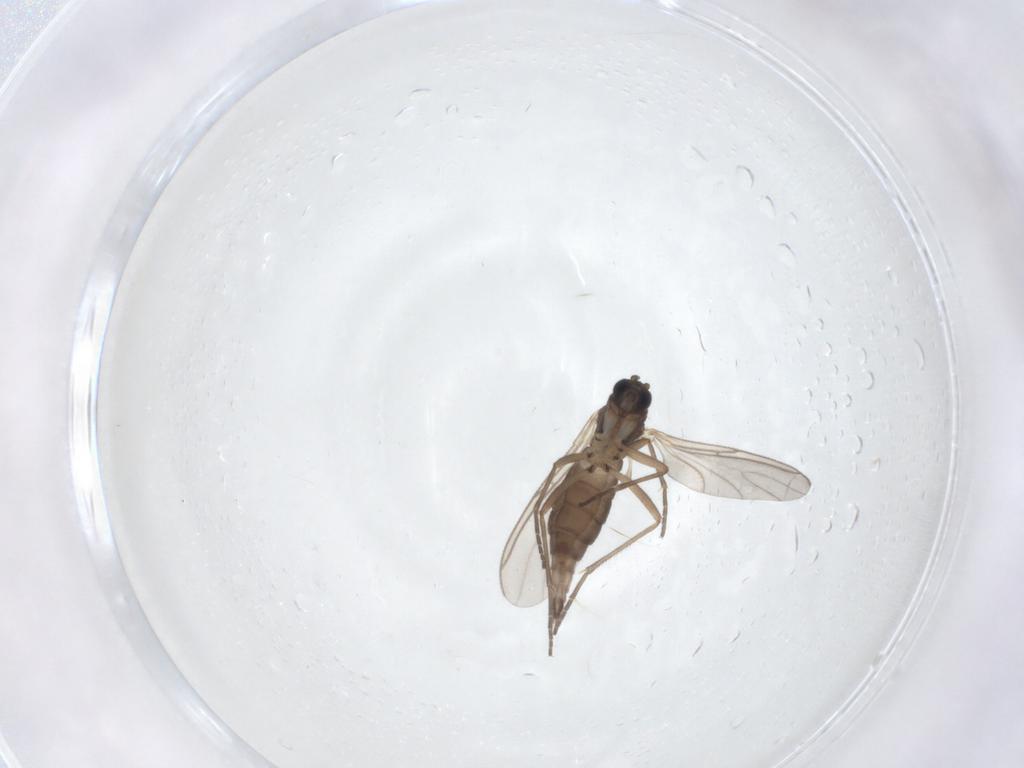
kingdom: Animalia
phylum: Arthropoda
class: Insecta
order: Diptera
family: Sciaridae
